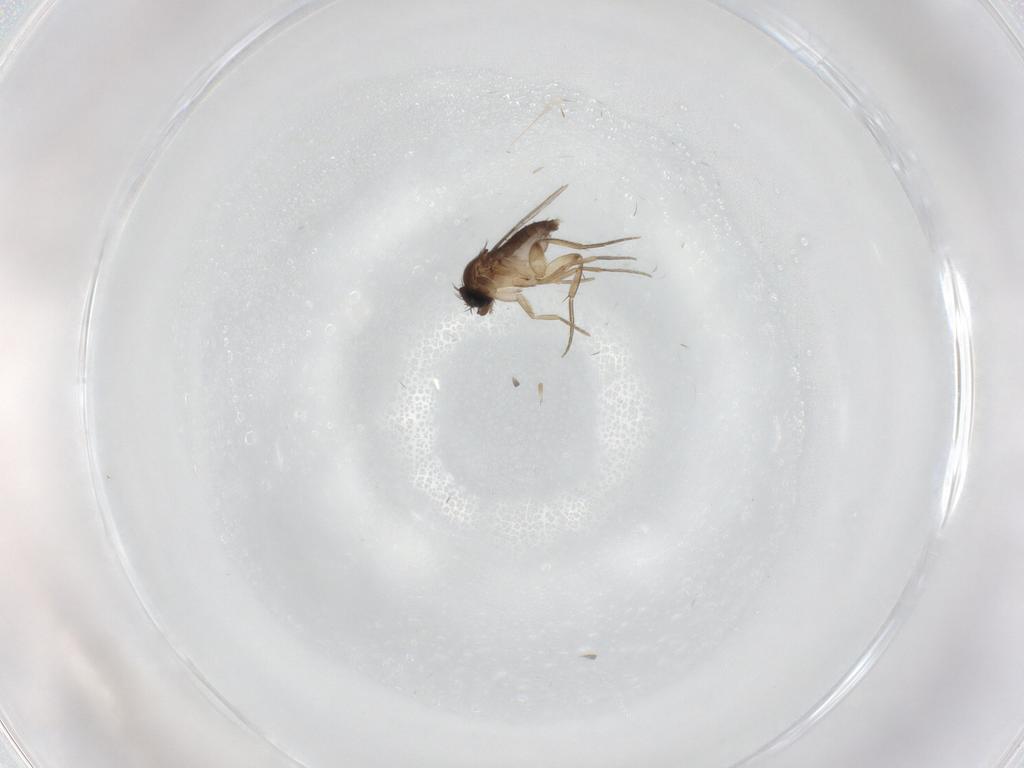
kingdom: Animalia
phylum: Arthropoda
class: Insecta
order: Diptera
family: Phoridae
